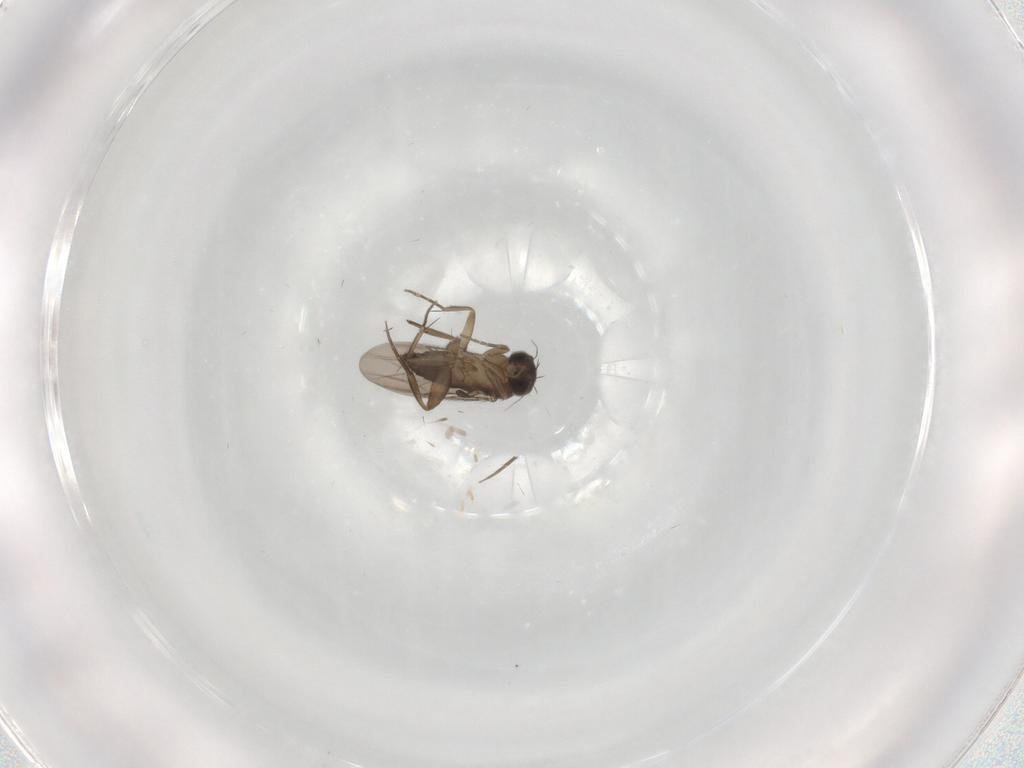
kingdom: Animalia
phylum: Arthropoda
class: Insecta
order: Diptera
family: Phoridae
